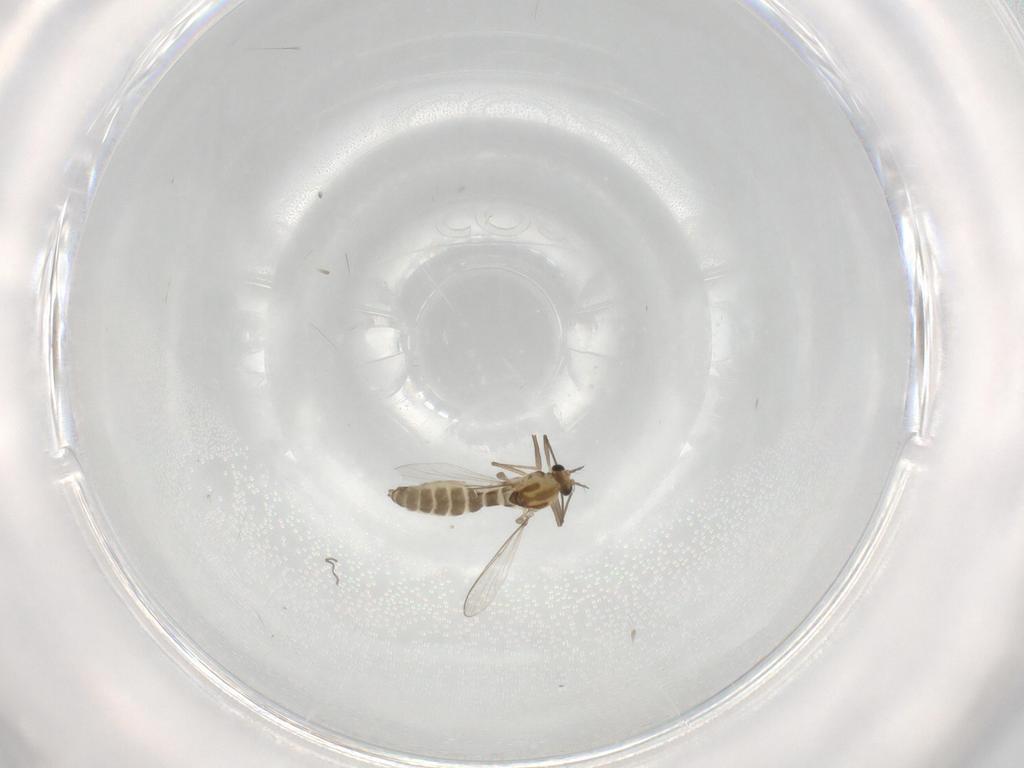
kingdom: Animalia
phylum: Arthropoda
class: Insecta
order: Diptera
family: Chironomidae
